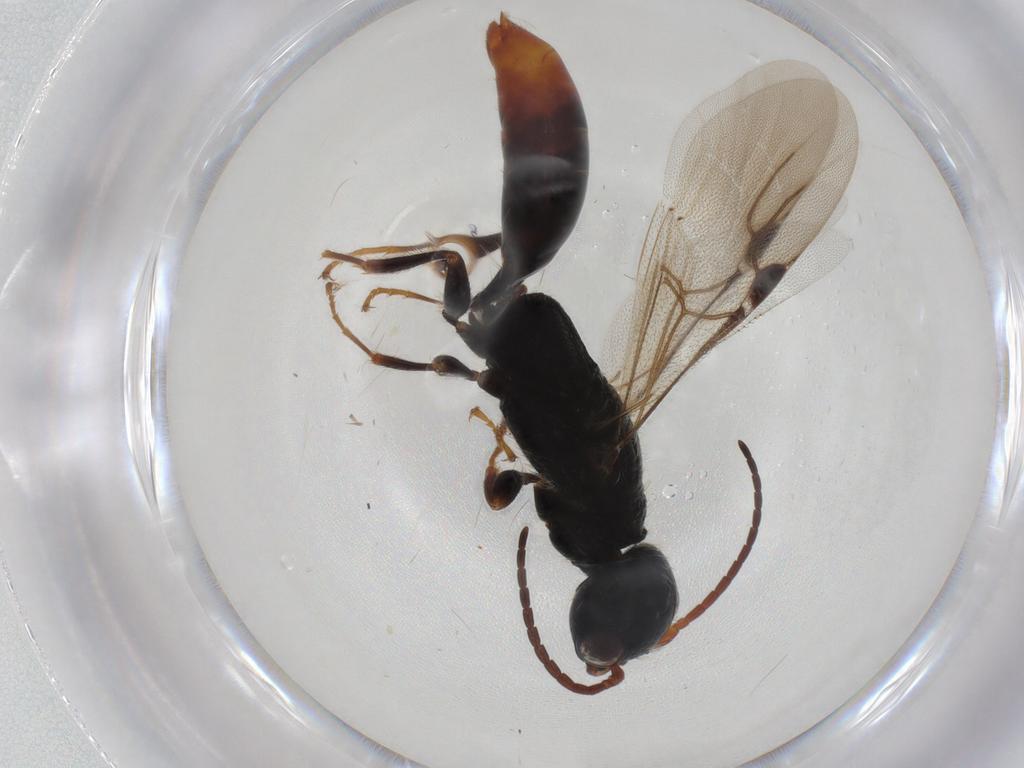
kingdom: Animalia
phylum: Arthropoda
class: Insecta
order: Hymenoptera
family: Bethylidae
